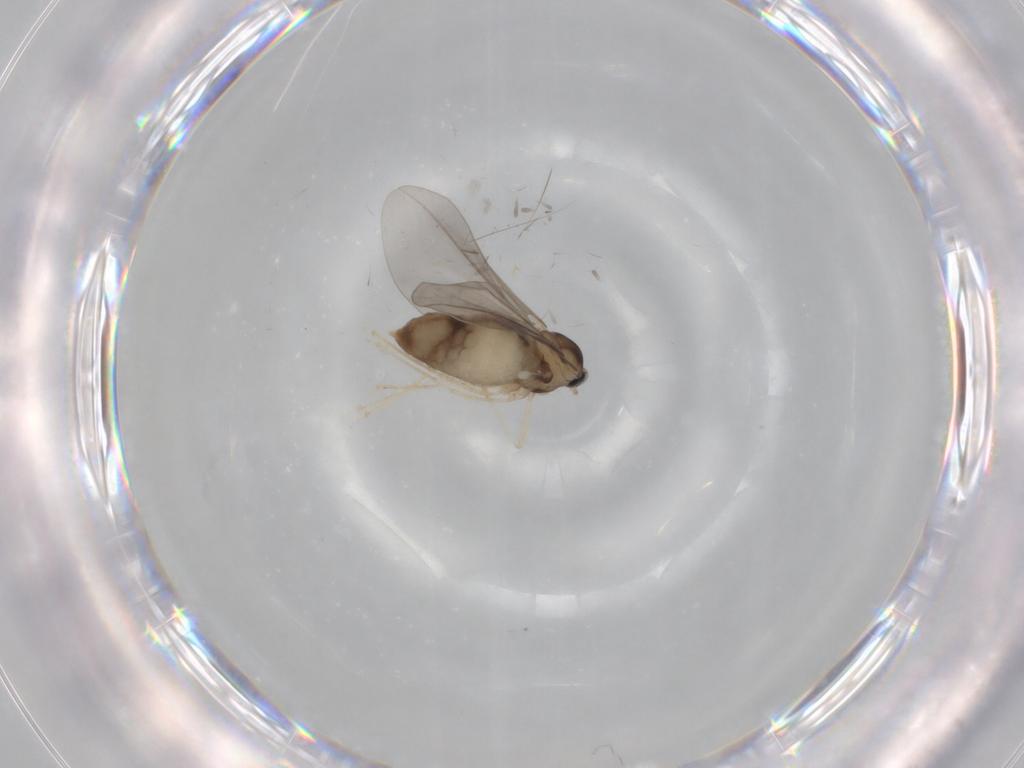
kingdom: Animalia
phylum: Arthropoda
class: Insecta
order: Diptera
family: Cecidomyiidae
